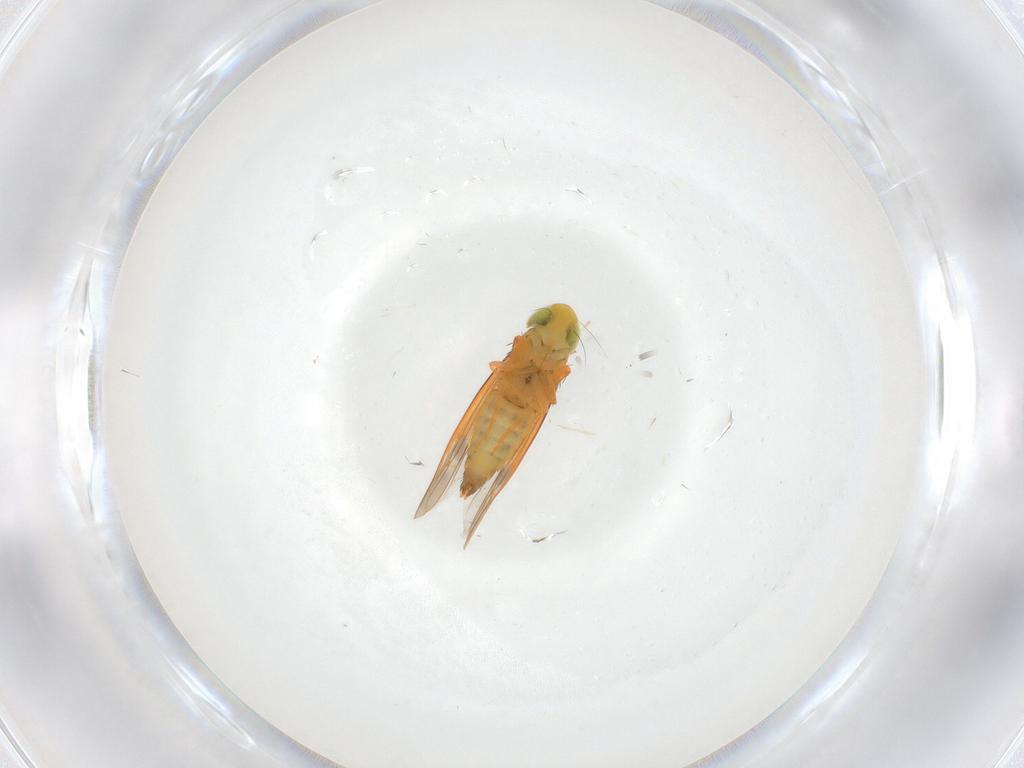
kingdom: Animalia
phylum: Arthropoda
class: Insecta
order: Hemiptera
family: Cicadellidae
